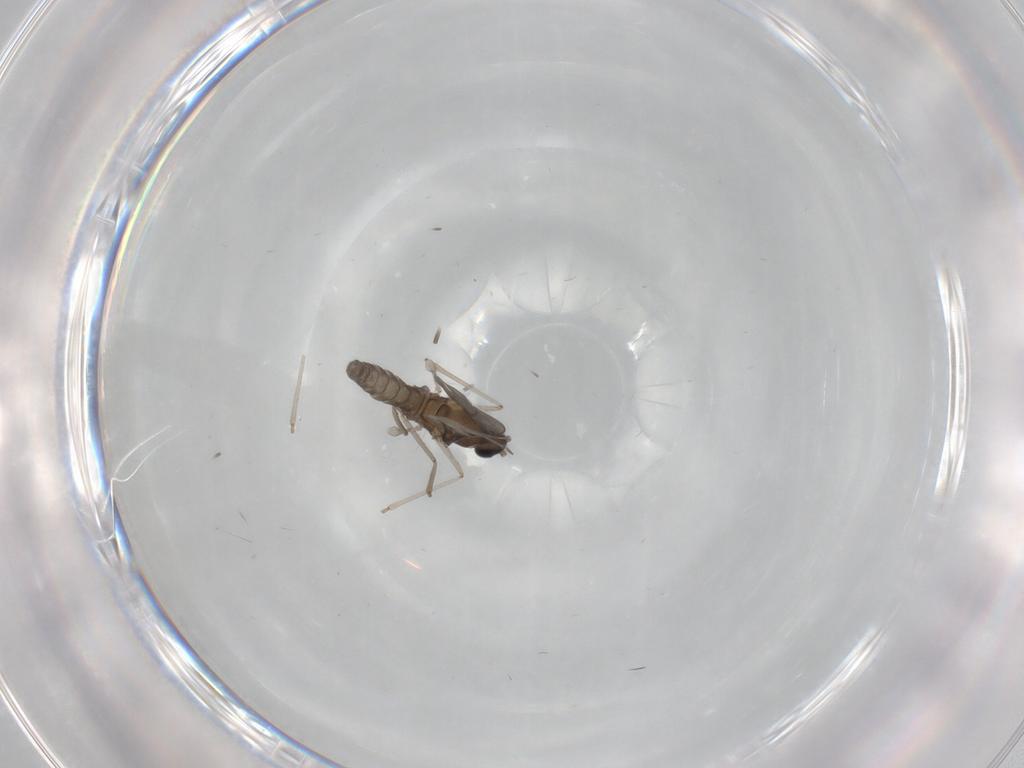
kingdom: Animalia
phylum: Arthropoda
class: Insecta
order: Diptera
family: Cecidomyiidae
